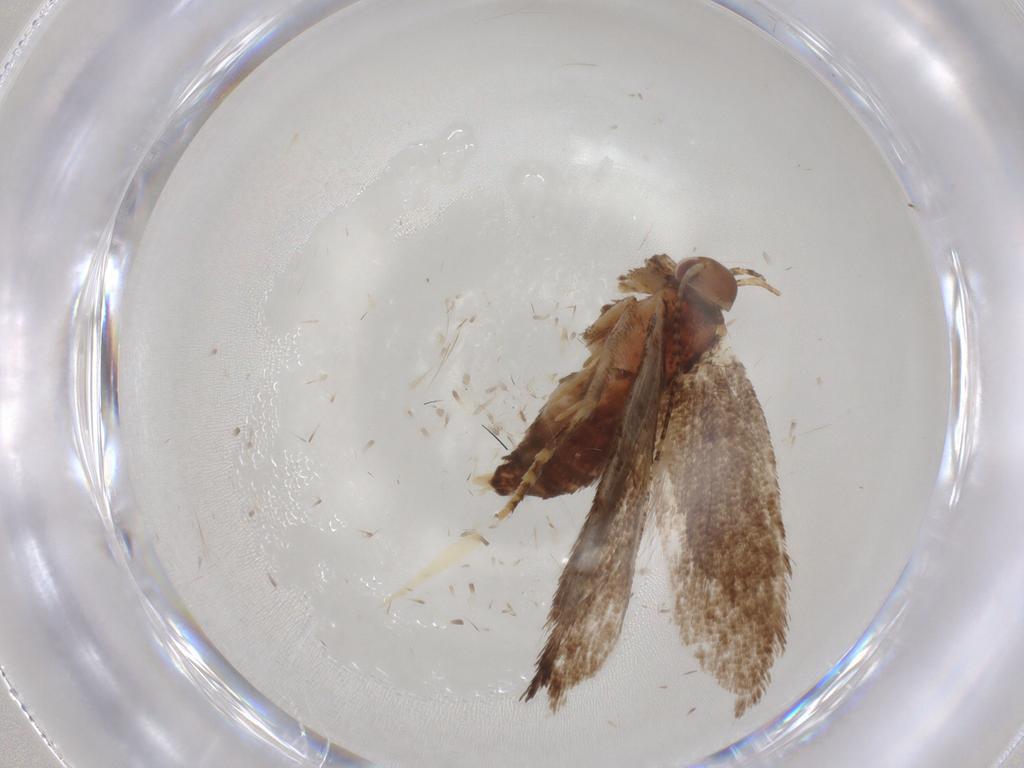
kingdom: Animalia
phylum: Arthropoda
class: Insecta
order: Lepidoptera
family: Oecophoridae
